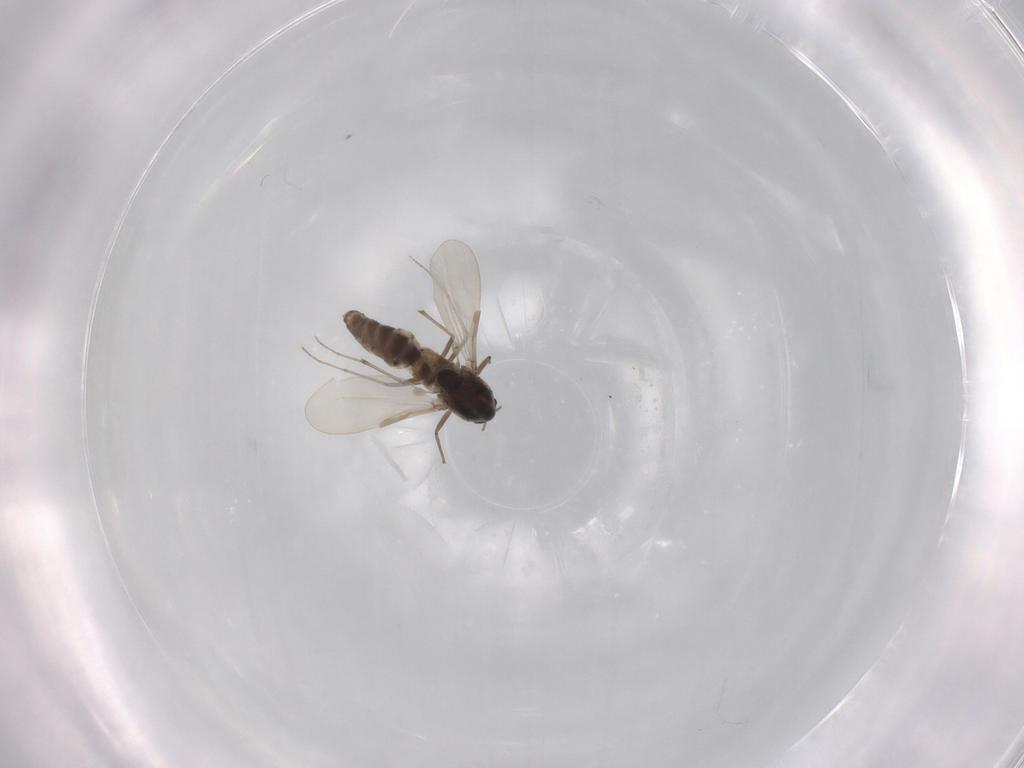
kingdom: Animalia
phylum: Arthropoda
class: Insecta
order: Diptera
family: Chironomidae
